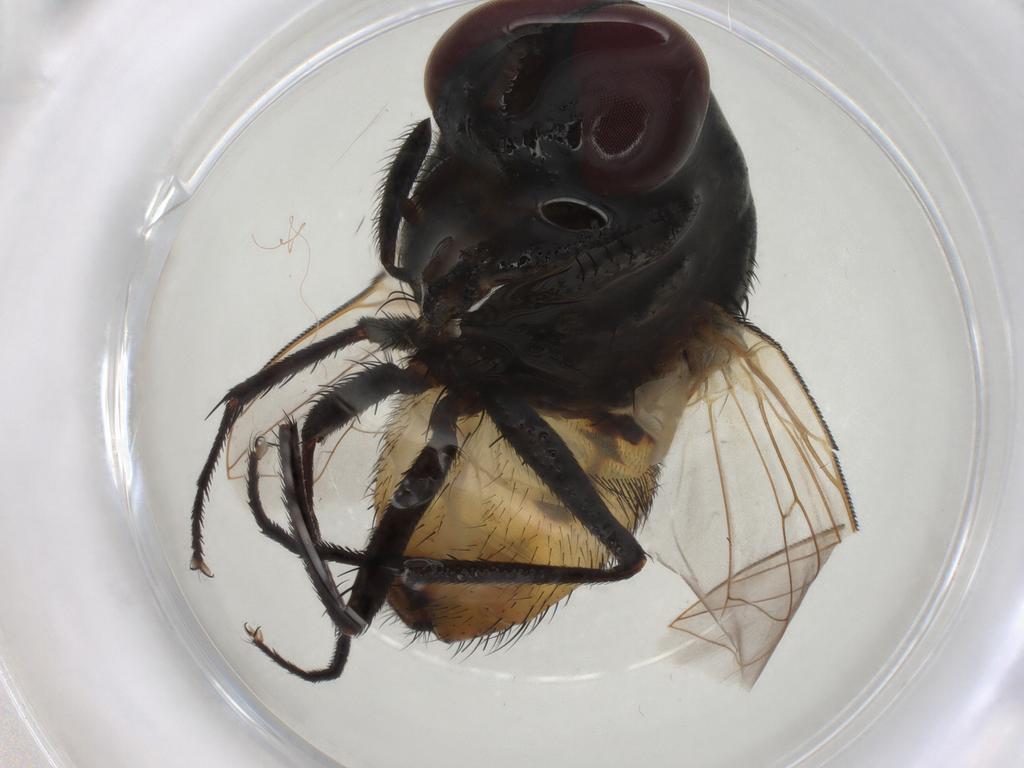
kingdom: Animalia
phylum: Arthropoda
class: Insecta
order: Diptera
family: Muscidae
